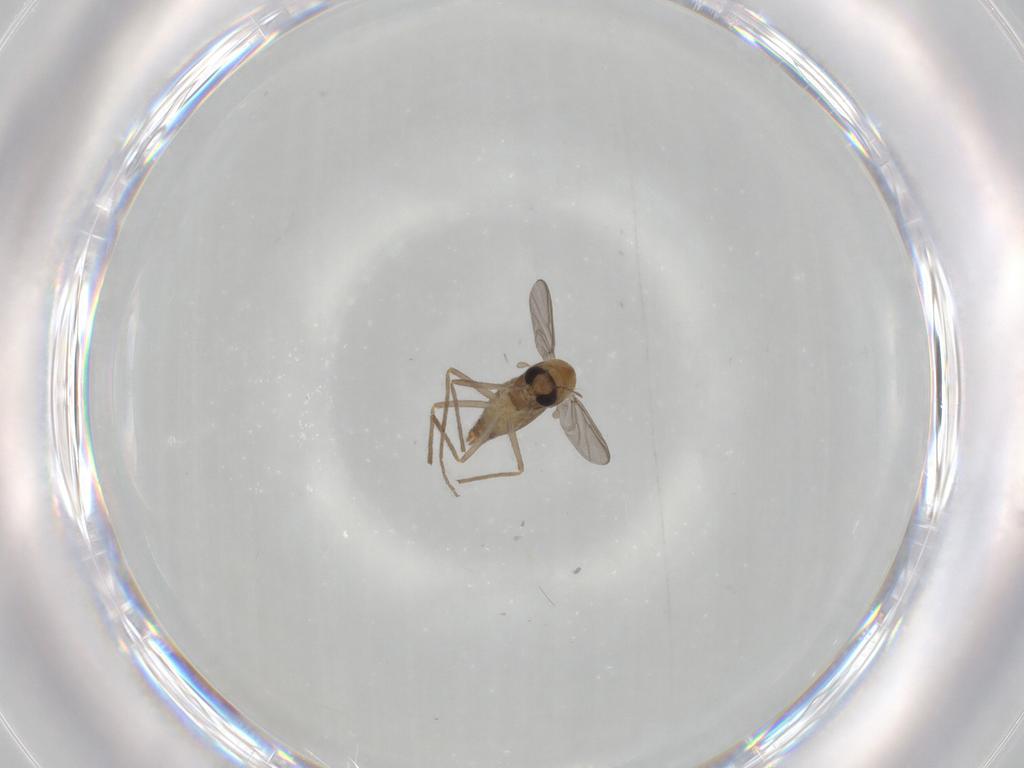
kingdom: Animalia
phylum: Arthropoda
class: Insecta
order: Diptera
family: Chironomidae
